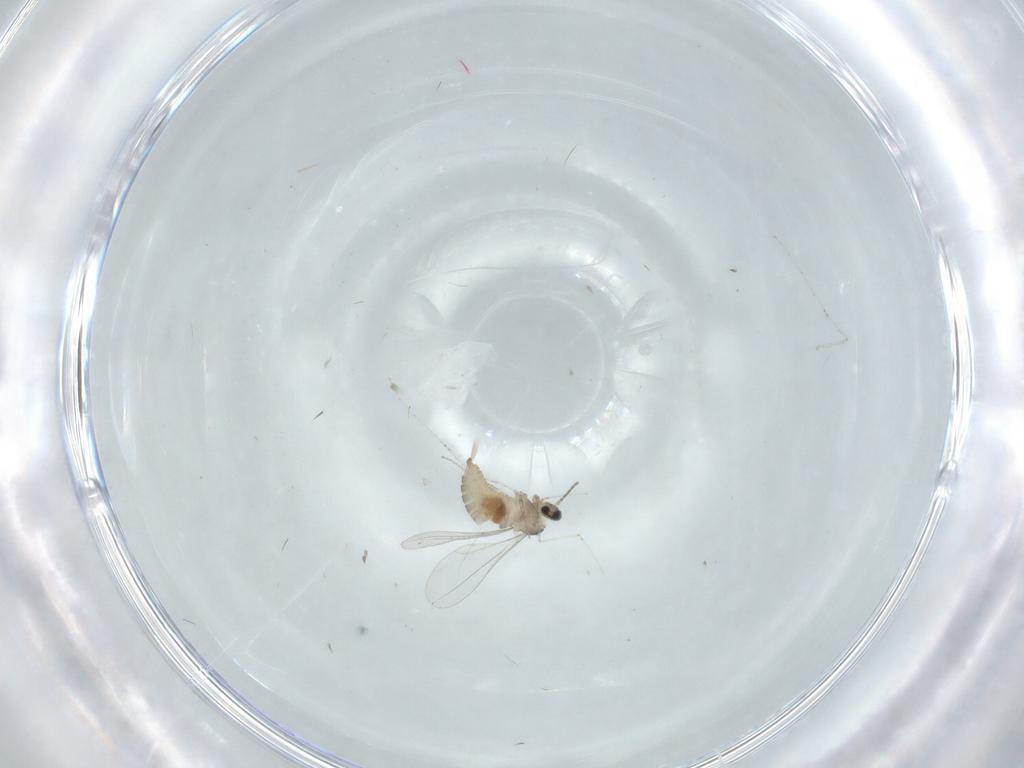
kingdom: Animalia
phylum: Arthropoda
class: Insecta
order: Diptera
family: Cecidomyiidae
